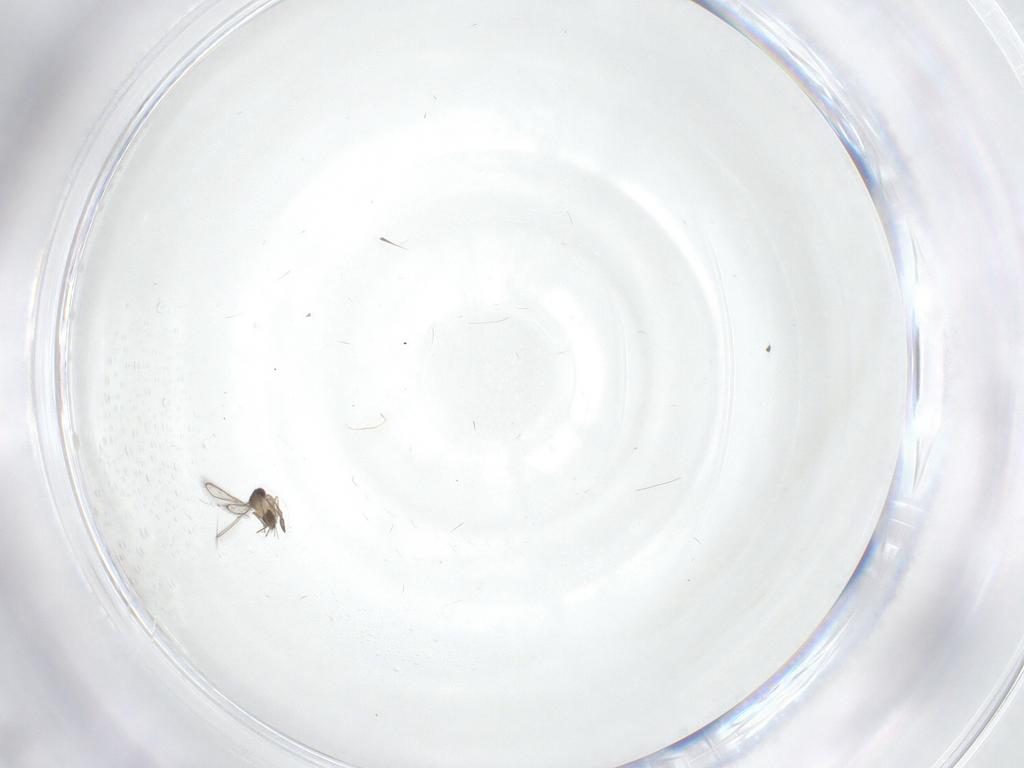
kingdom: Animalia
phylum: Arthropoda
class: Insecta
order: Hymenoptera
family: Mymaridae
